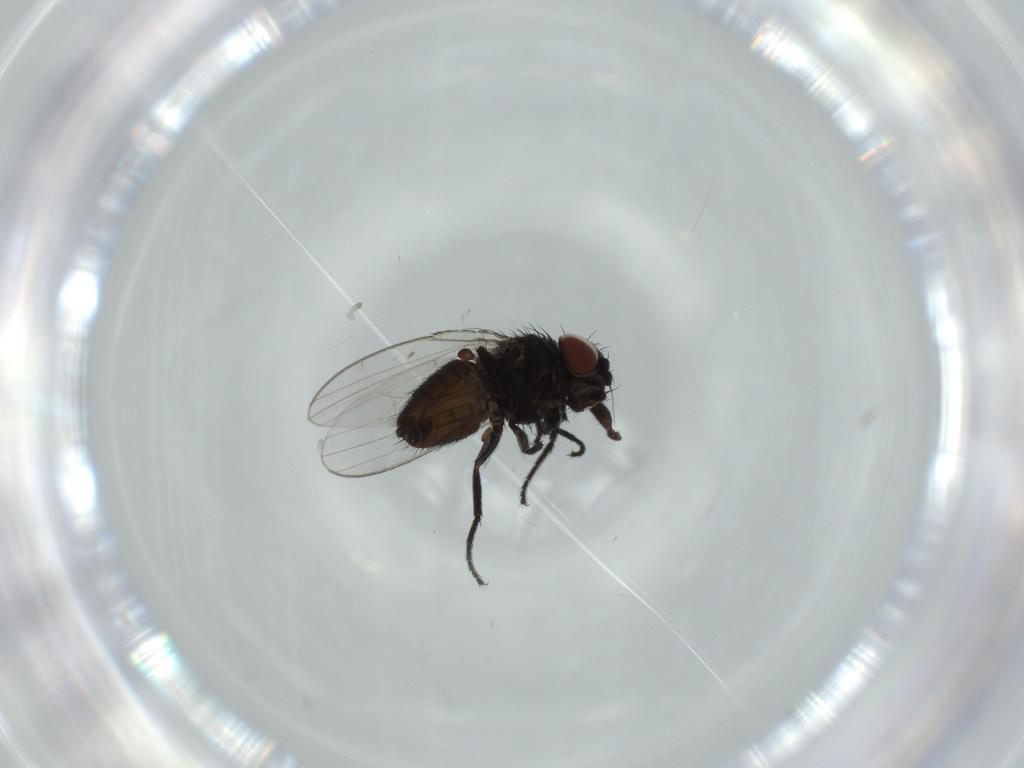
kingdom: Animalia
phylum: Arthropoda
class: Insecta
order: Diptera
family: Milichiidae
